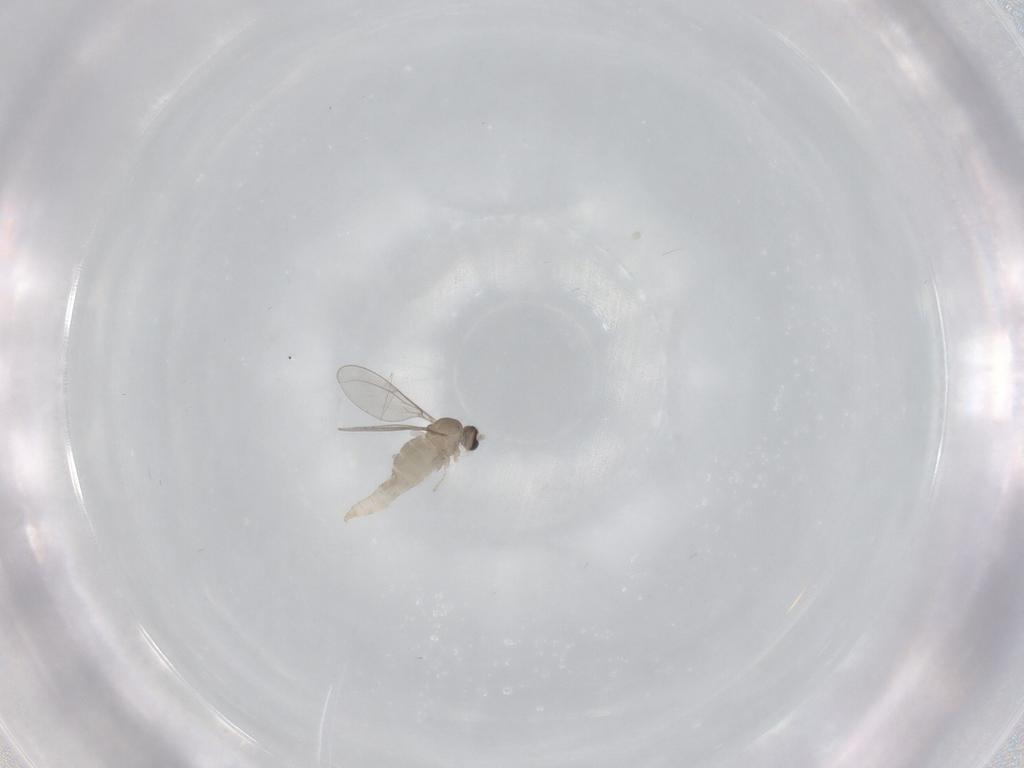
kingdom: Animalia
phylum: Arthropoda
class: Insecta
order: Diptera
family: Cecidomyiidae
